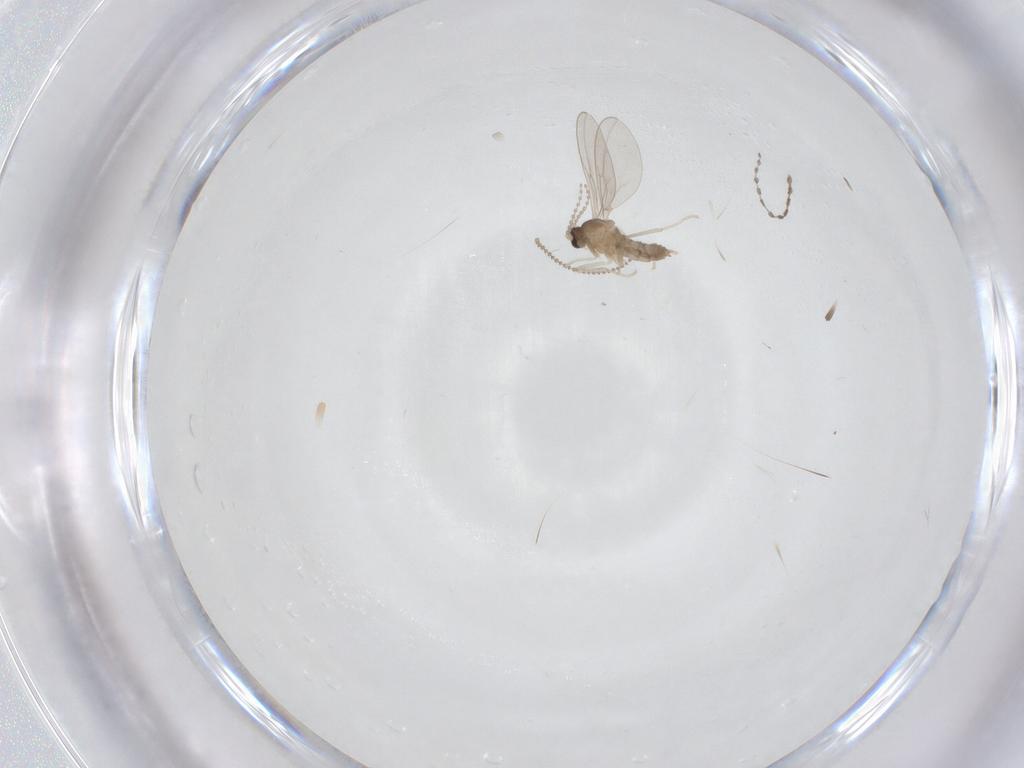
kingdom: Animalia
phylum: Arthropoda
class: Insecta
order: Diptera
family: Cecidomyiidae
